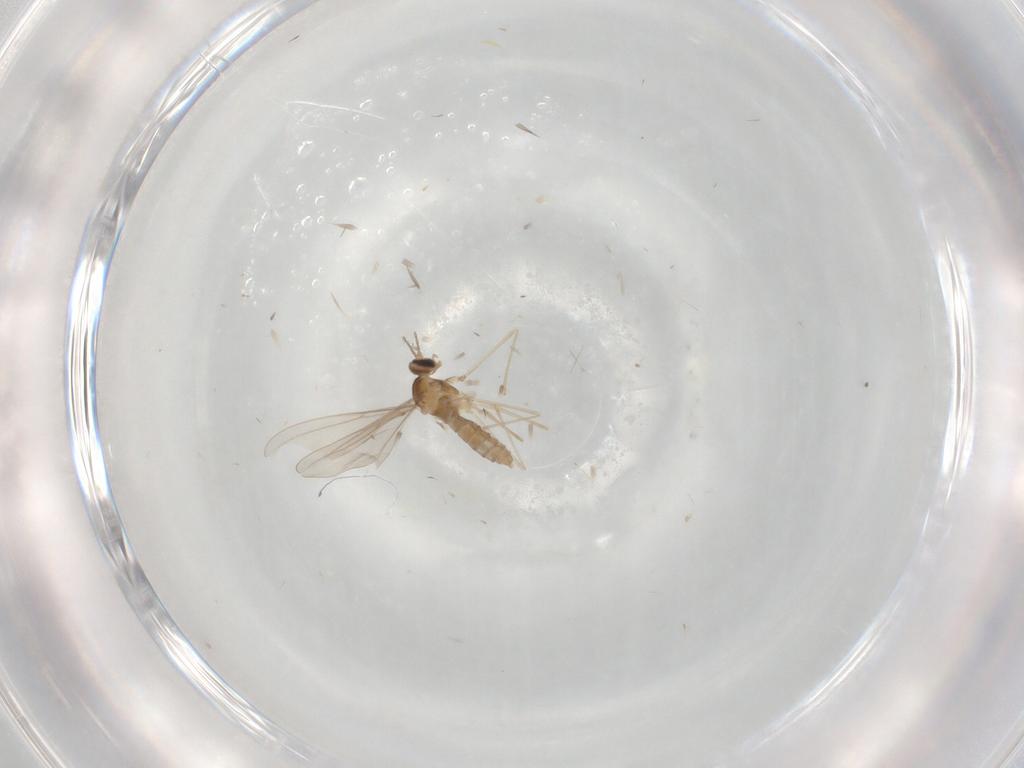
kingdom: Animalia
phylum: Arthropoda
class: Insecta
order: Diptera
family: Cecidomyiidae
